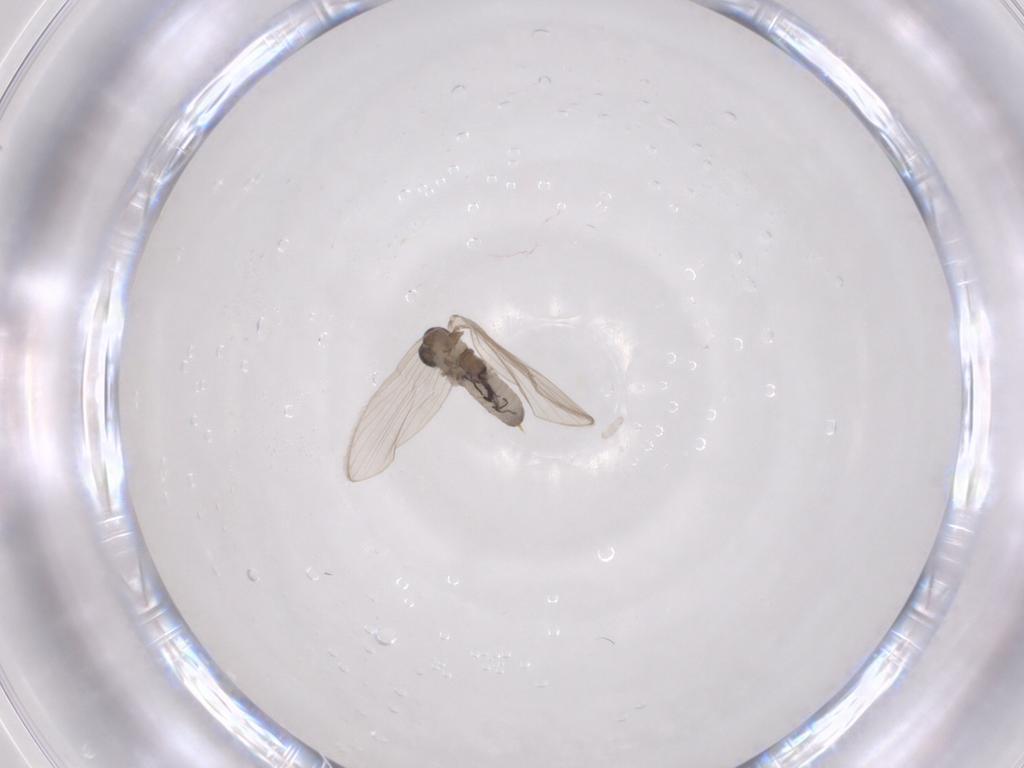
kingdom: Animalia
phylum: Arthropoda
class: Insecta
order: Diptera
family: Psychodidae
